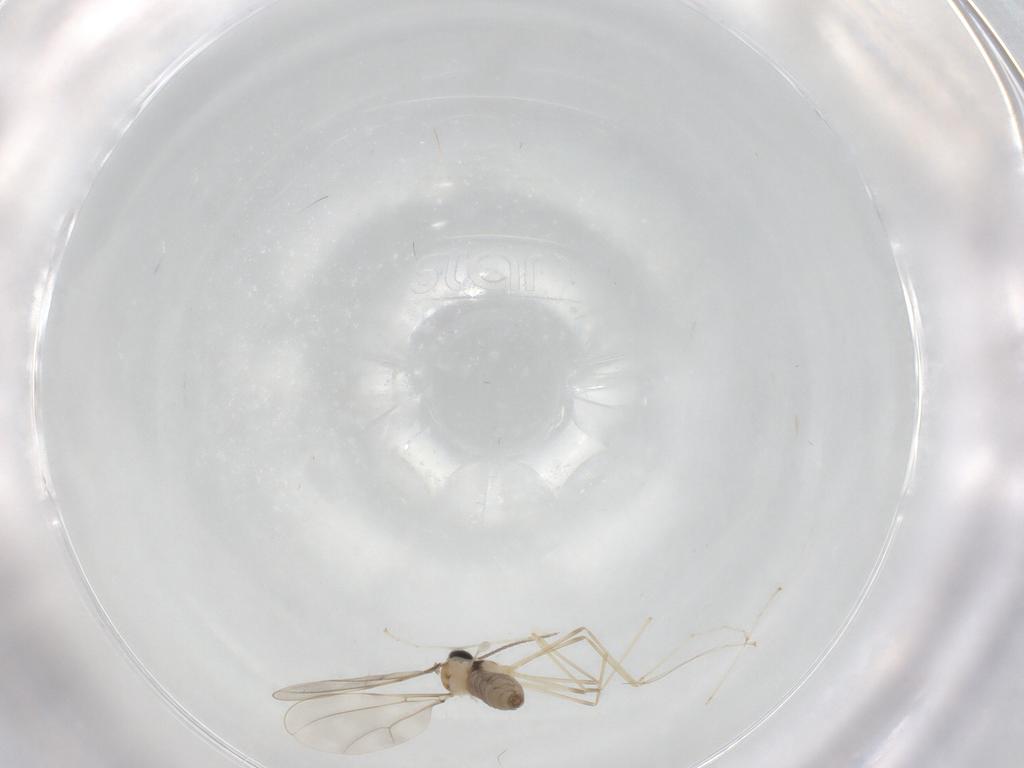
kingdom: Animalia
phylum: Arthropoda
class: Insecta
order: Diptera
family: Cecidomyiidae
